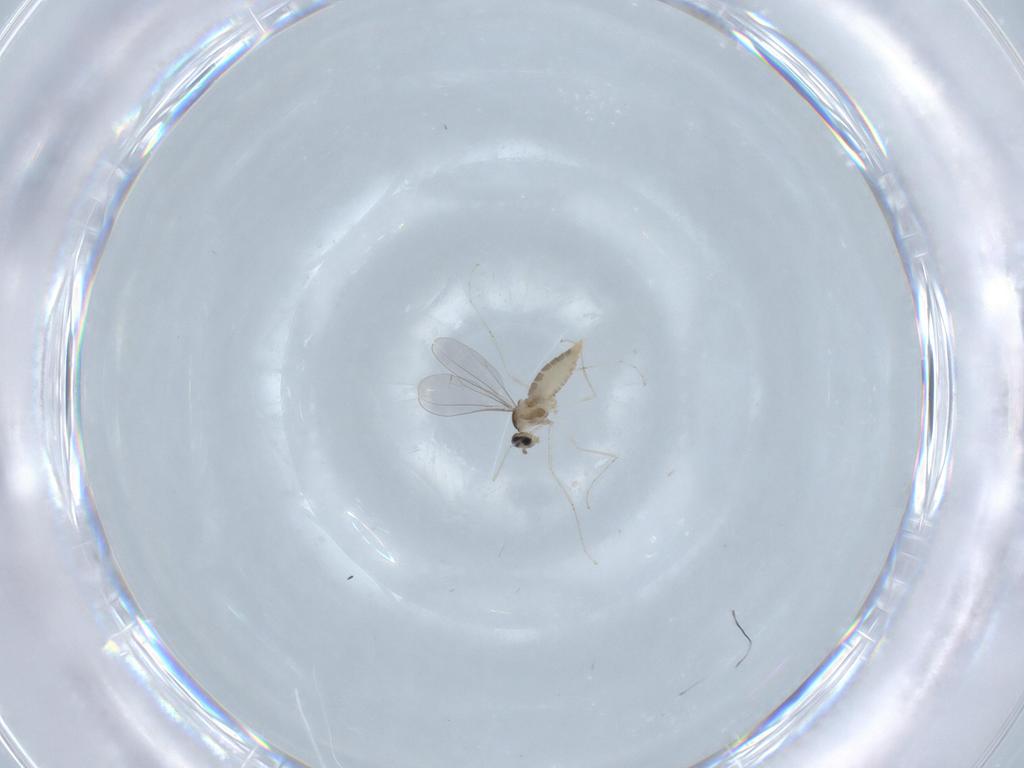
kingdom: Animalia
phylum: Arthropoda
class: Insecta
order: Diptera
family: Cecidomyiidae
